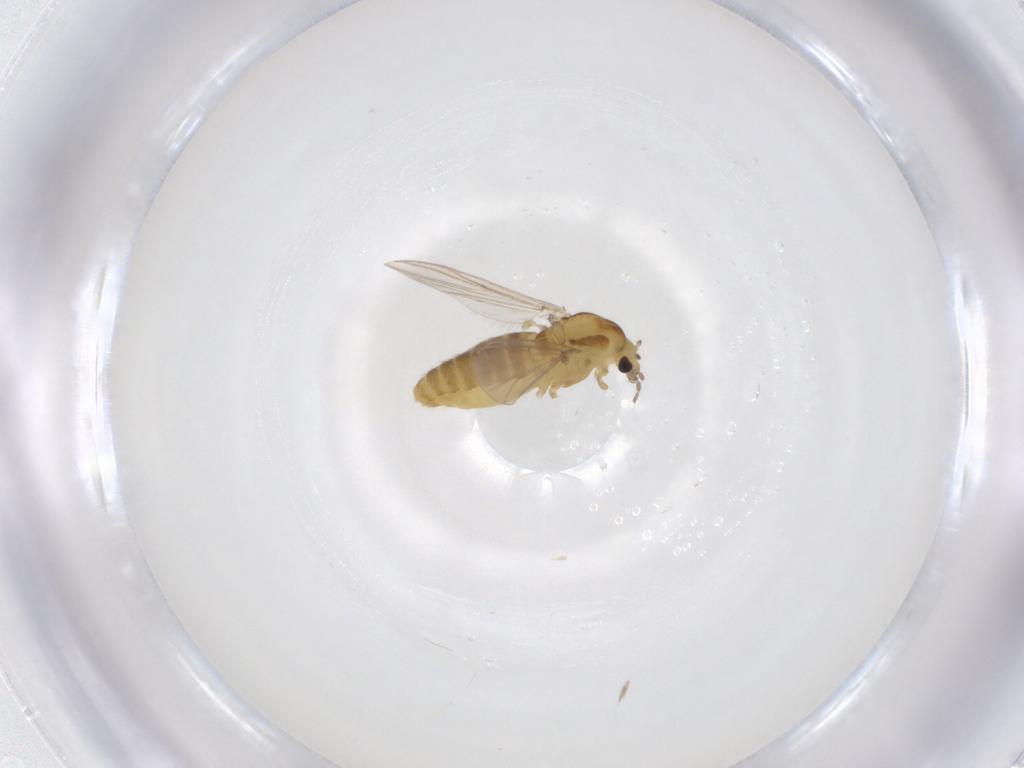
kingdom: Animalia
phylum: Arthropoda
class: Insecta
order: Diptera
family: Chironomidae
